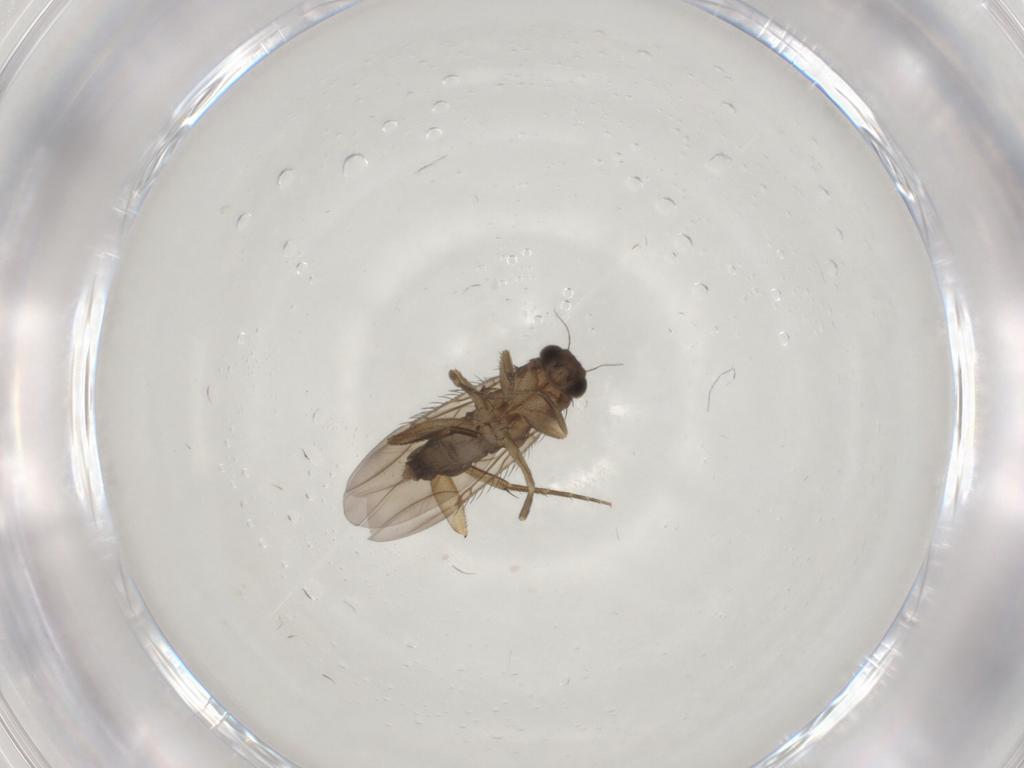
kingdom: Animalia
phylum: Arthropoda
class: Insecta
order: Diptera
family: Phoridae
